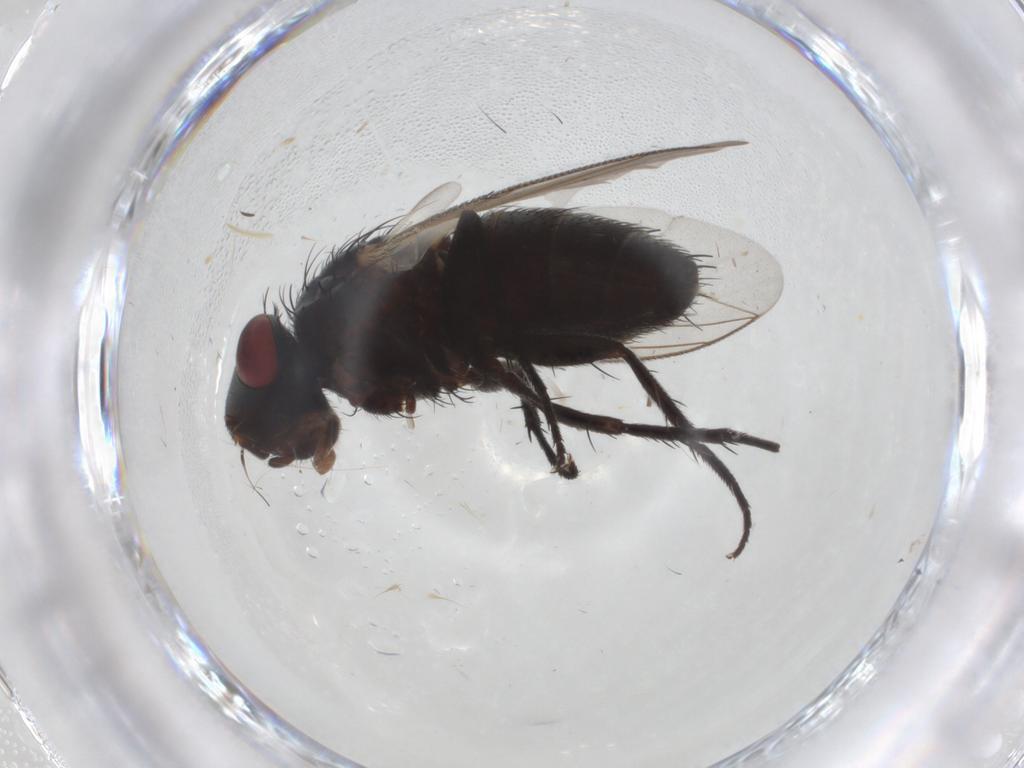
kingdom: Animalia
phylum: Arthropoda
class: Insecta
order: Diptera
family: Sarcophagidae
